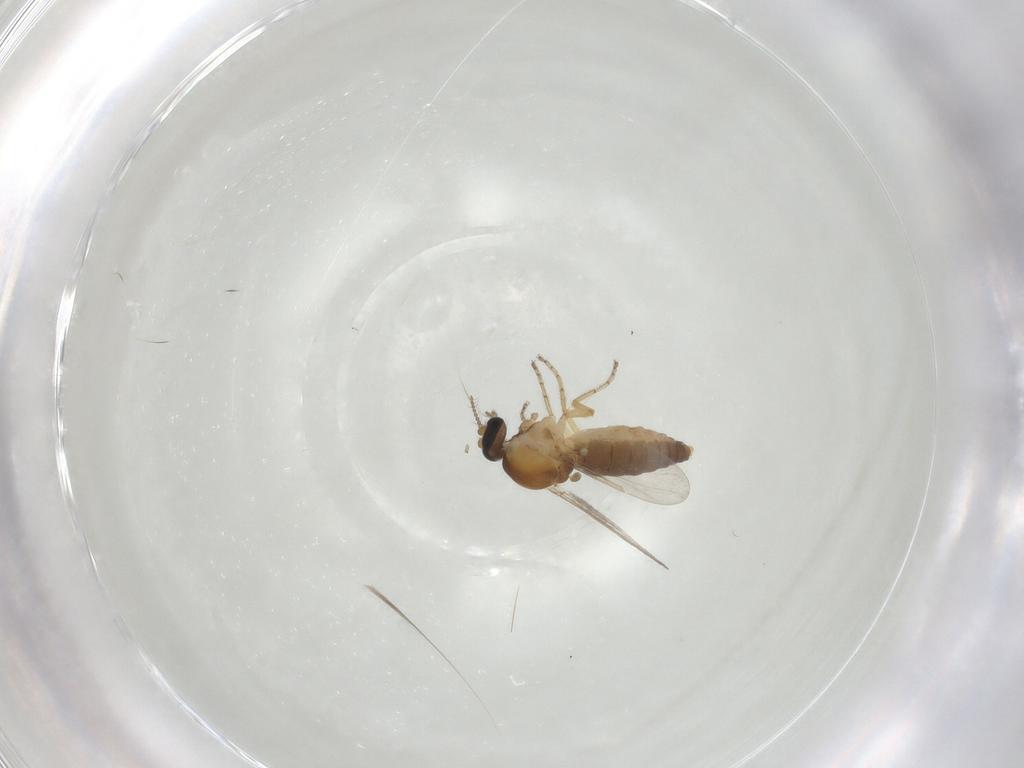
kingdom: Animalia
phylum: Arthropoda
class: Insecta
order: Diptera
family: Ceratopogonidae
